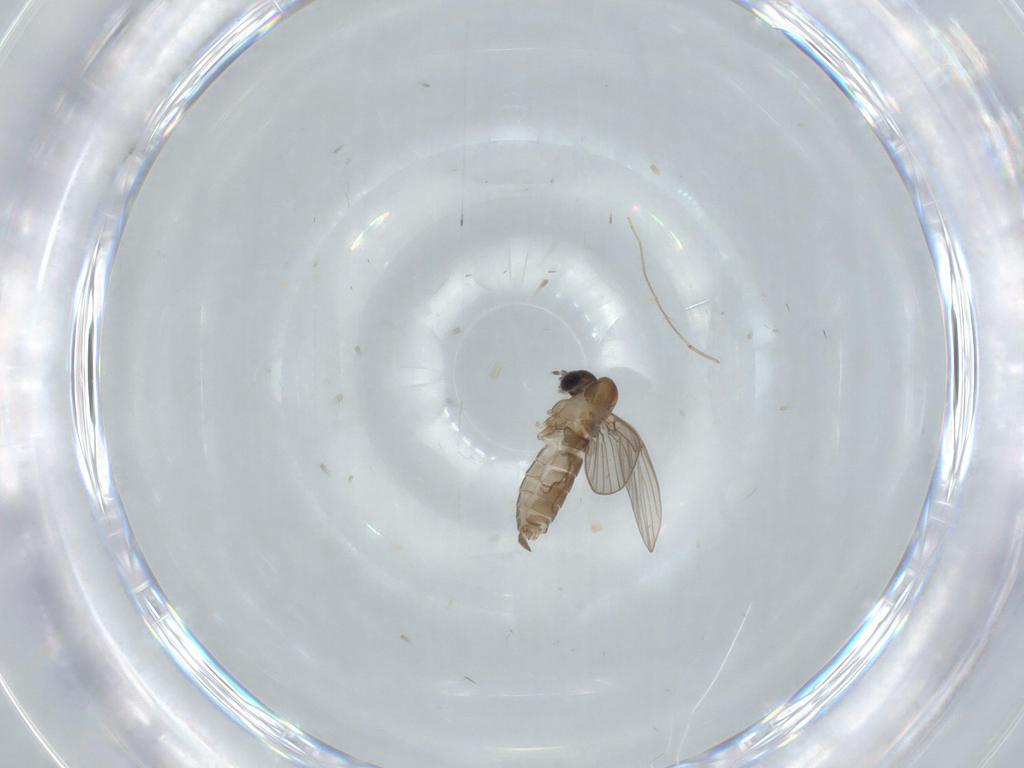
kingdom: Animalia
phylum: Arthropoda
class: Insecta
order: Diptera
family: Psychodidae
